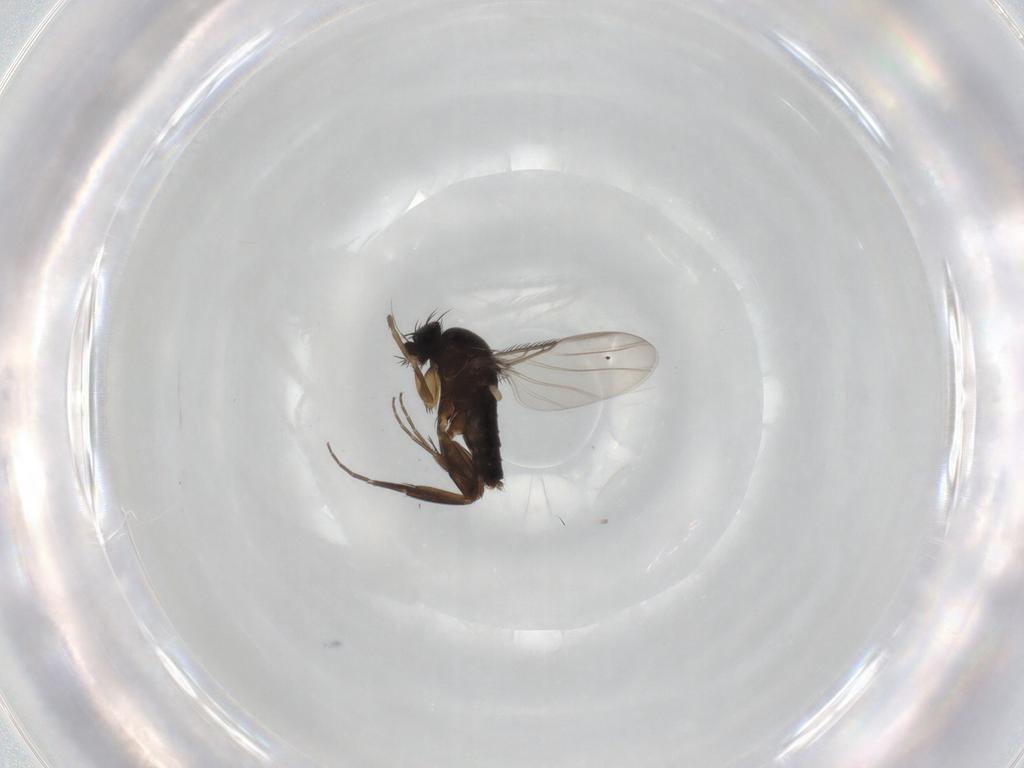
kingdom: Animalia
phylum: Arthropoda
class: Insecta
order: Diptera
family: Phoridae
